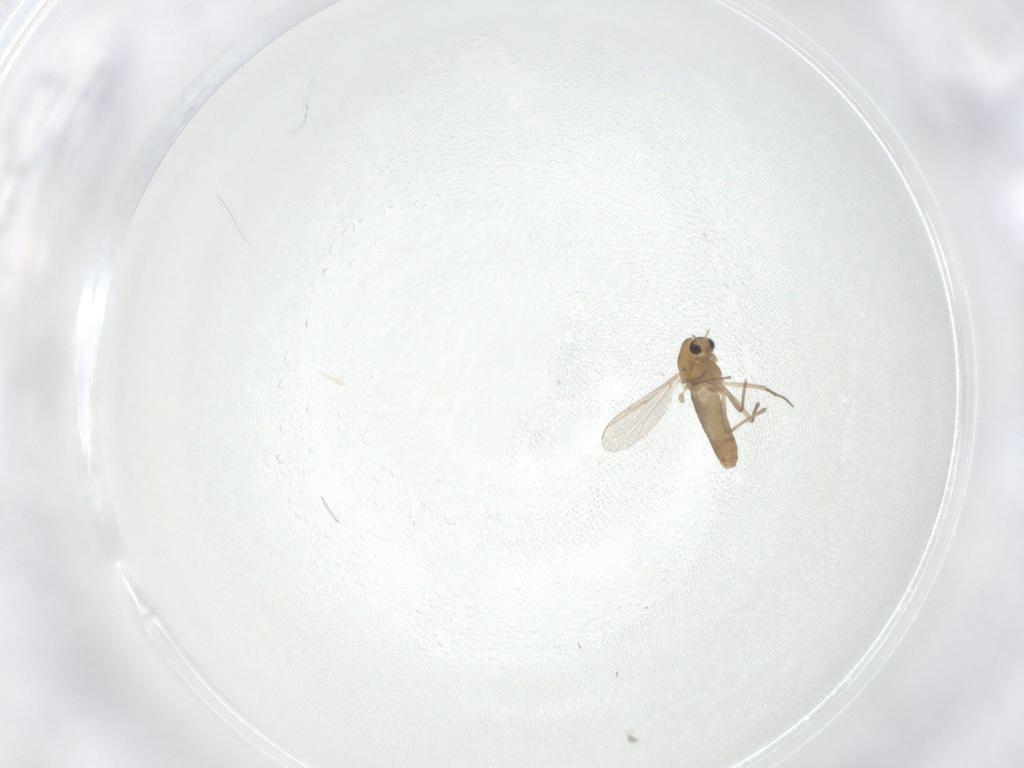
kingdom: Animalia
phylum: Arthropoda
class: Insecta
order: Diptera
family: Chironomidae
